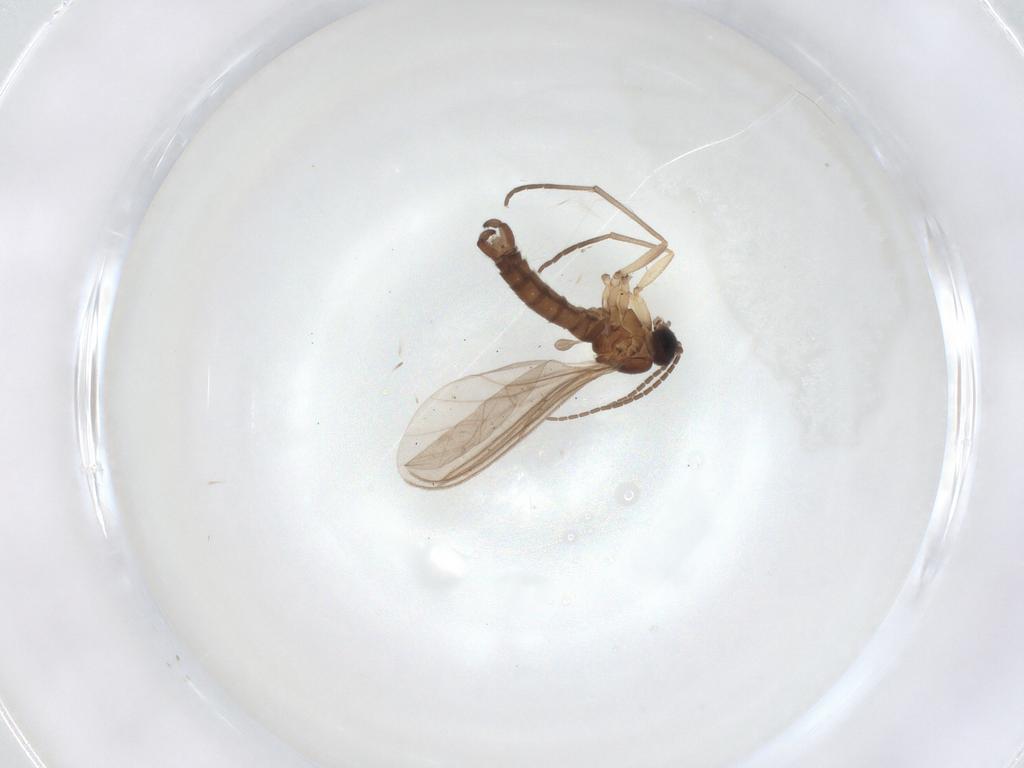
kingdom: Animalia
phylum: Arthropoda
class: Insecta
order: Diptera
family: Sciaridae
